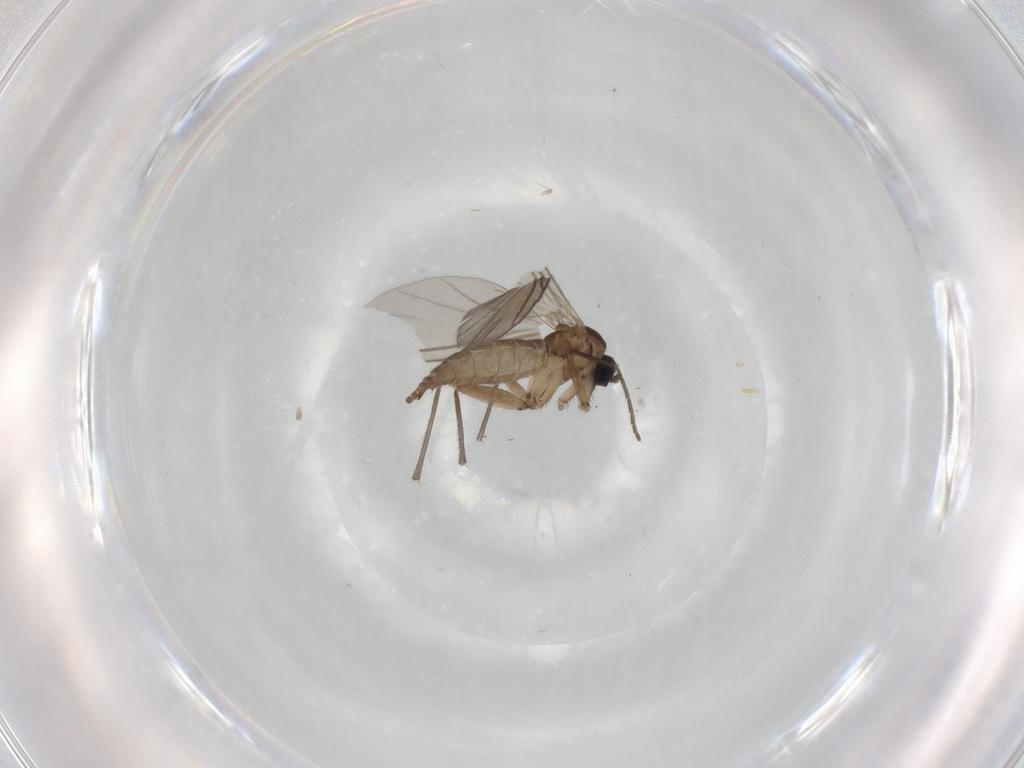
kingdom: Animalia
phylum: Arthropoda
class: Insecta
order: Diptera
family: Sciaridae
